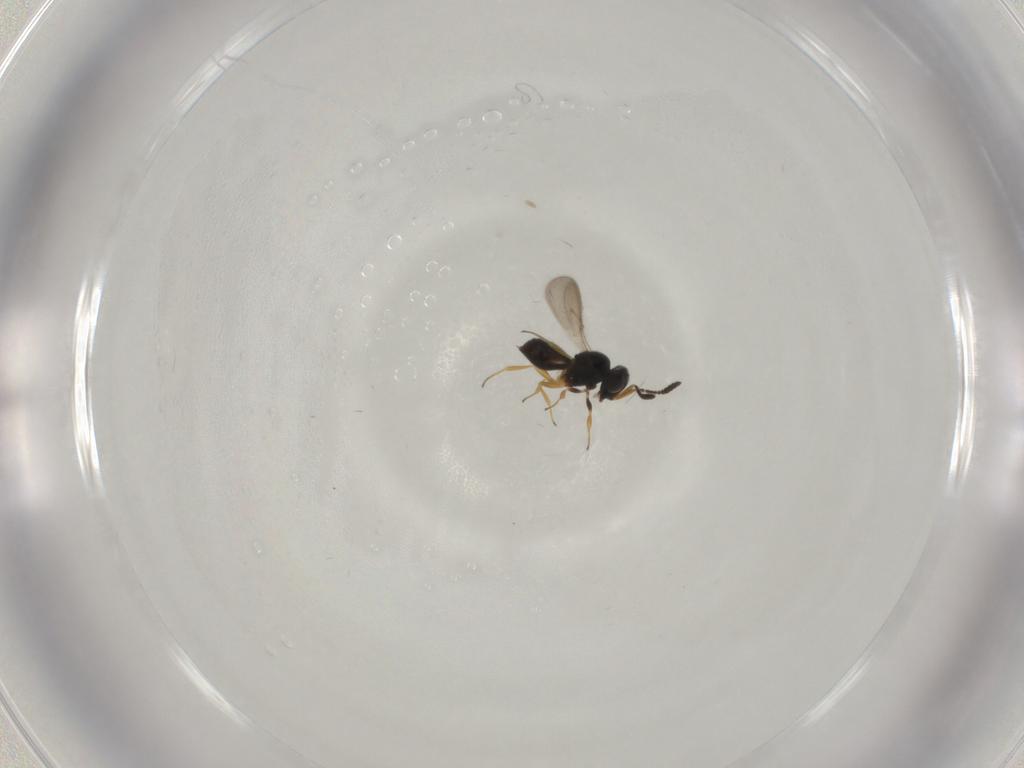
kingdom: Animalia
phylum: Arthropoda
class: Insecta
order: Hymenoptera
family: Scelionidae
